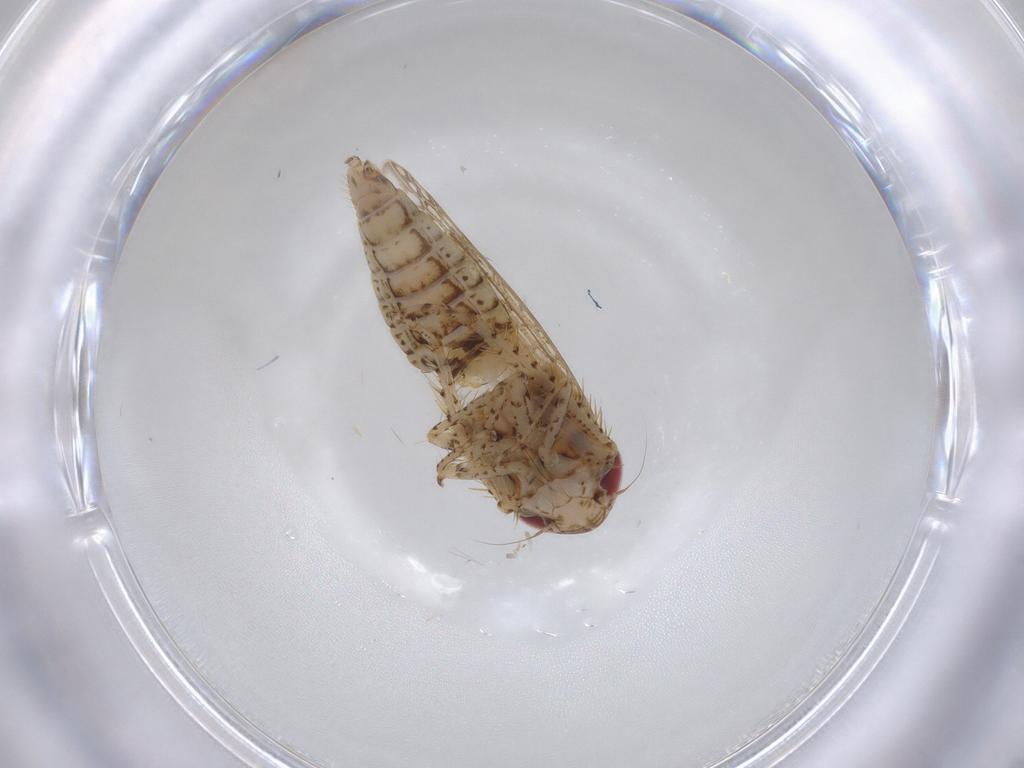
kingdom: Animalia
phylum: Arthropoda
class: Insecta
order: Hemiptera
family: Cicadellidae
